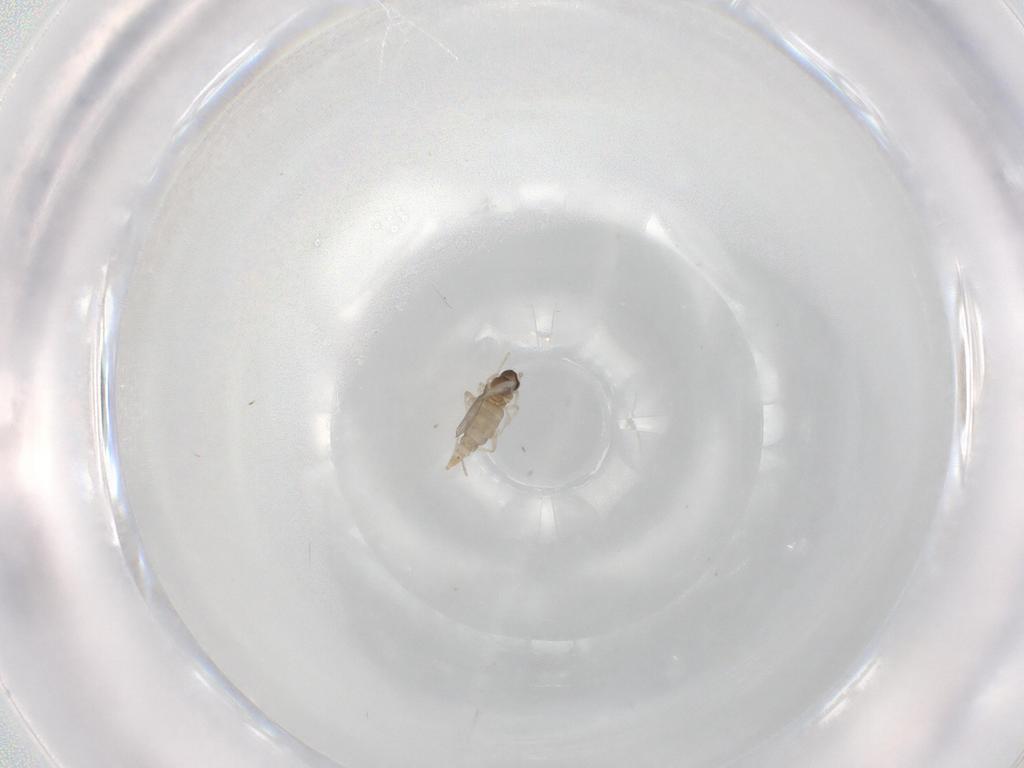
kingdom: Animalia
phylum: Arthropoda
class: Insecta
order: Diptera
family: Cecidomyiidae
